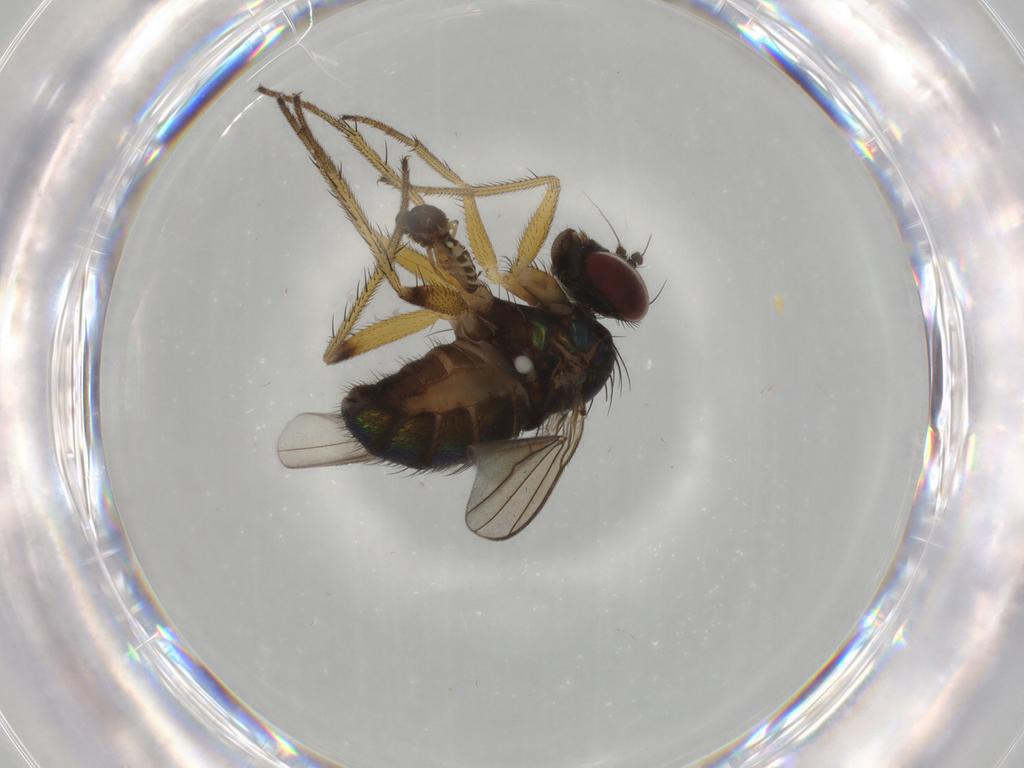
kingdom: Animalia
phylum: Arthropoda
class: Insecta
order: Diptera
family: Dolichopodidae
